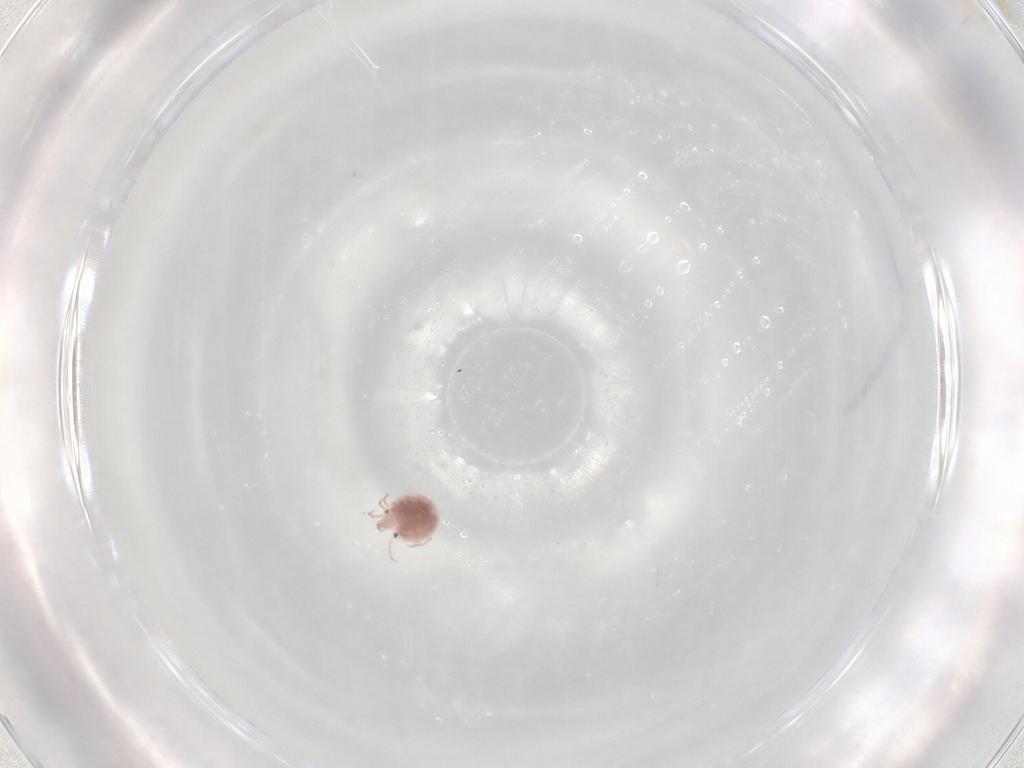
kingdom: Animalia
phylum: Arthropoda
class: Arachnida
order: Trombidiformes
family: Pionidae
